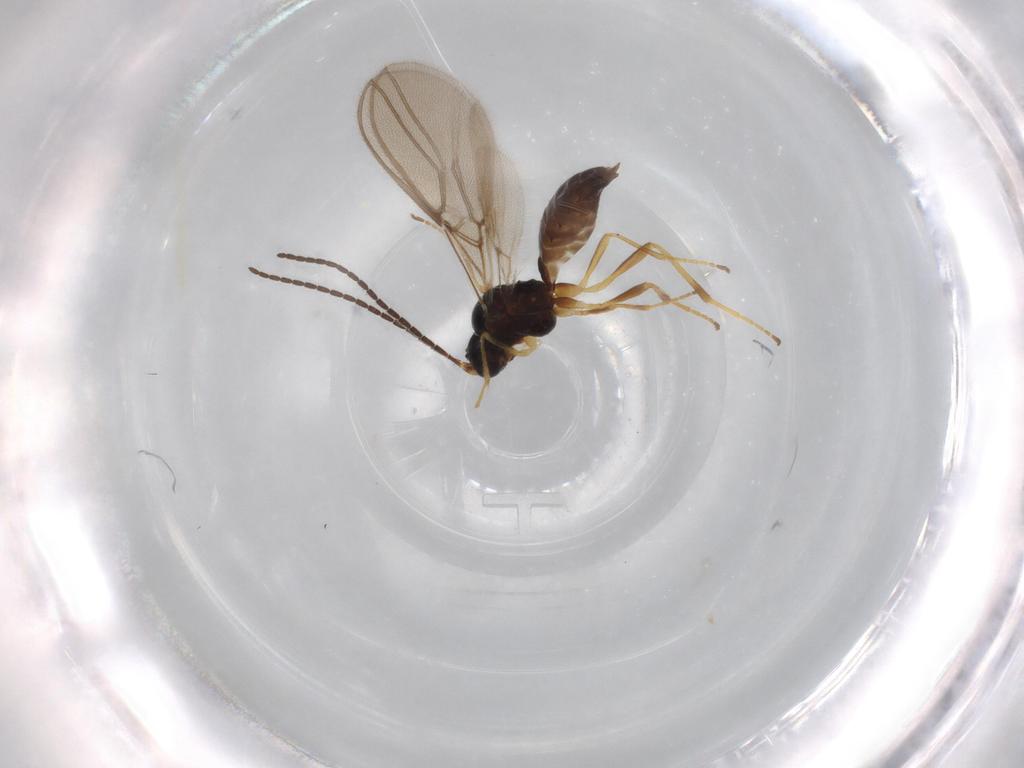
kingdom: Animalia
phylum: Arthropoda
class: Insecta
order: Hymenoptera
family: Braconidae
